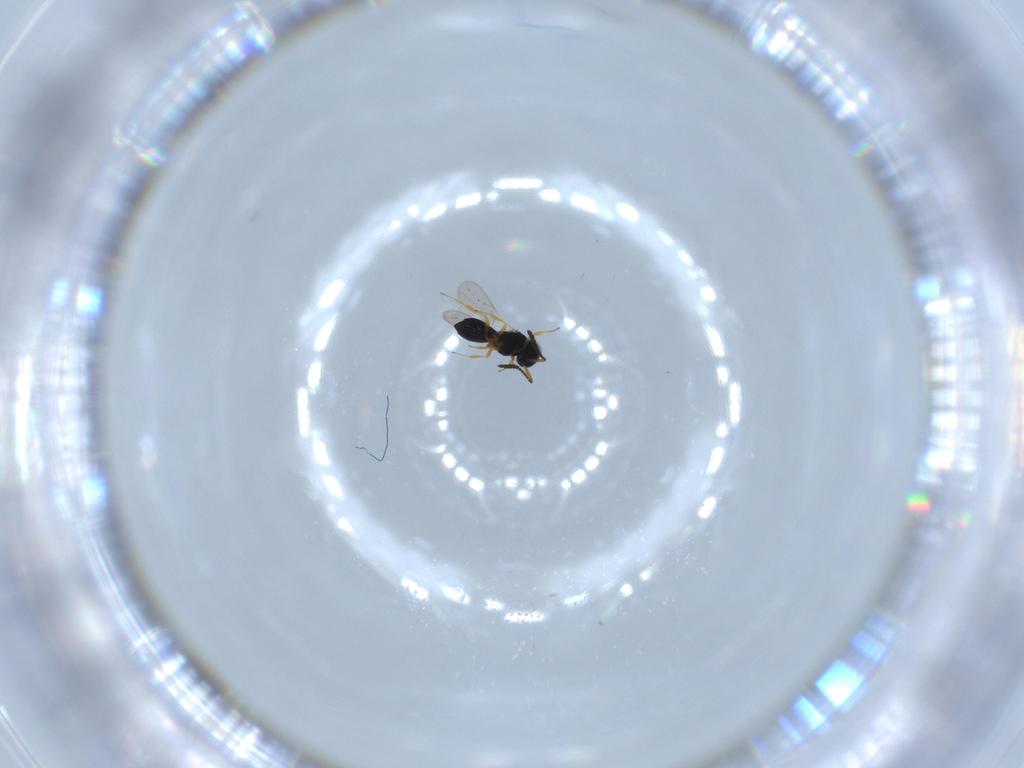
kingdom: Animalia
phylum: Arthropoda
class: Insecta
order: Hymenoptera
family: Scelionidae
